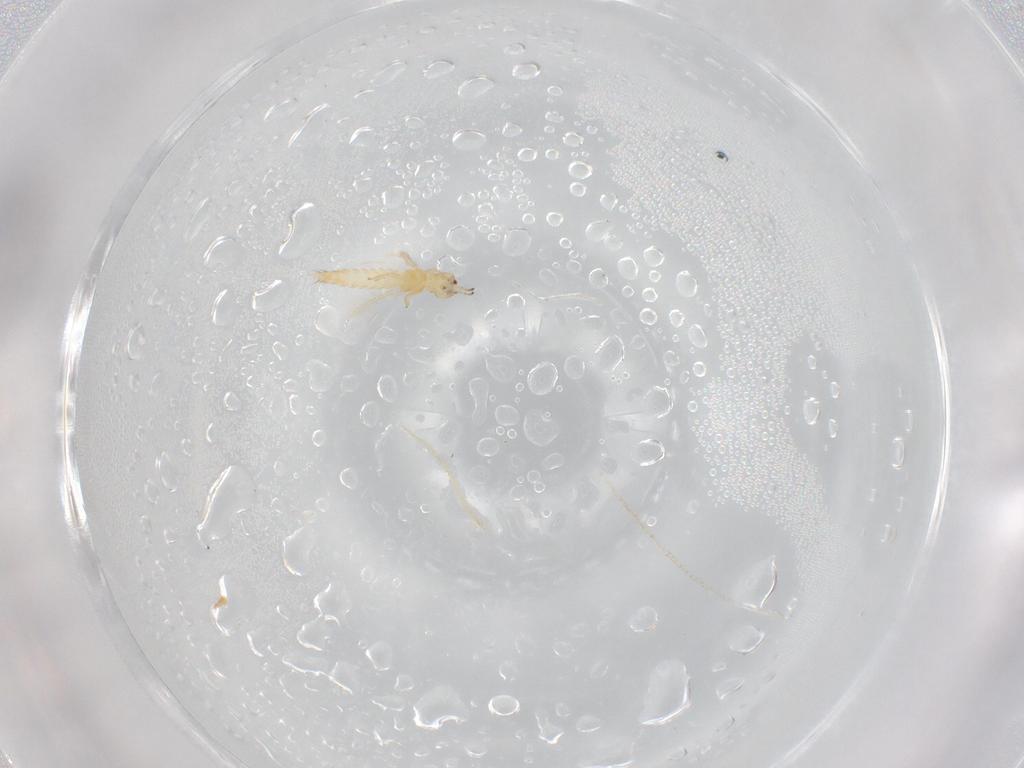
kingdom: Animalia
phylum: Arthropoda
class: Insecta
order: Thysanoptera
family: Thripidae
